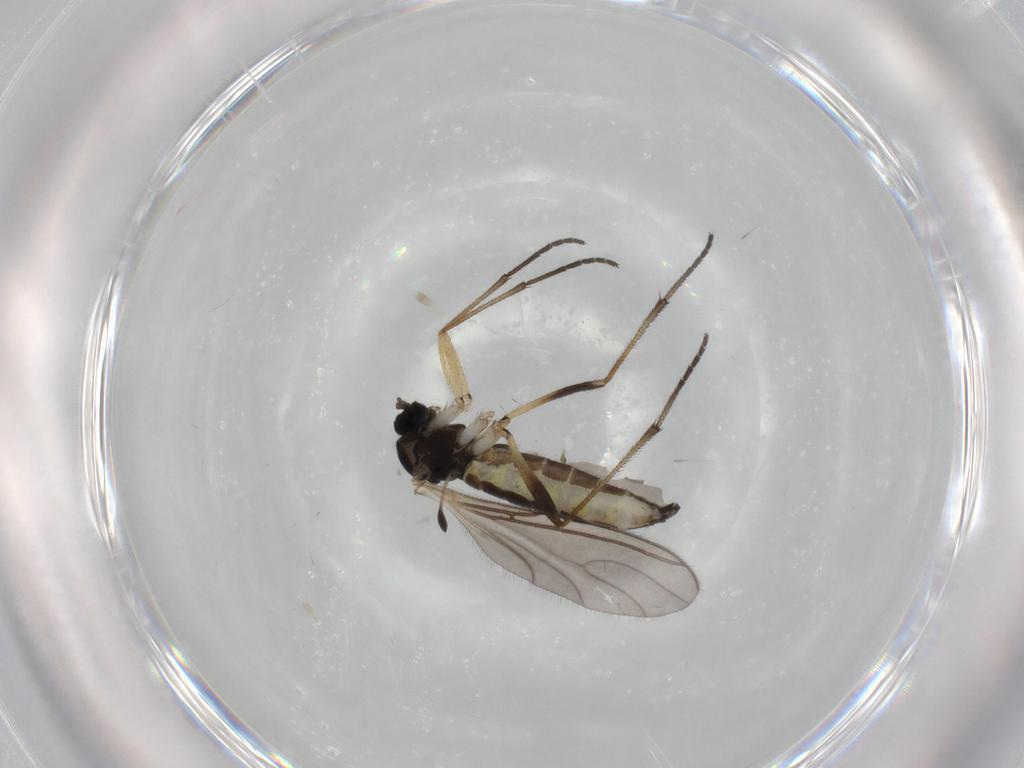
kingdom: Animalia
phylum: Arthropoda
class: Insecta
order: Diptera
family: Sciaridae
